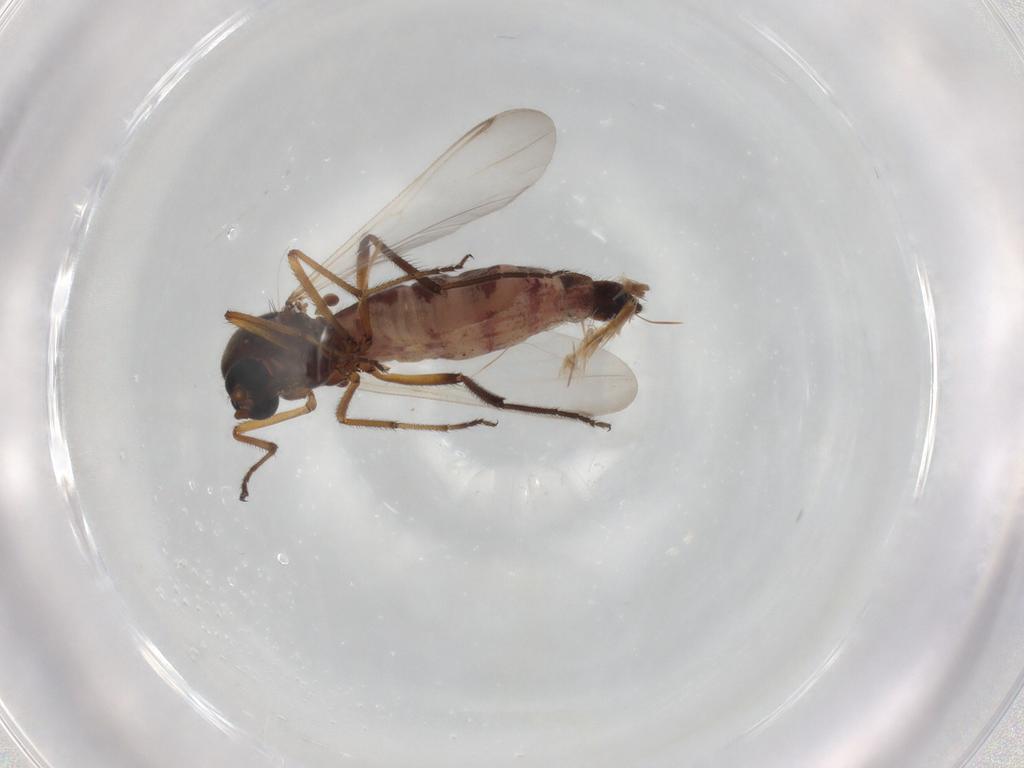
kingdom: Animalia
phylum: Arthropoda
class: Insecta
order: Diptera
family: Ceratopogonidae
